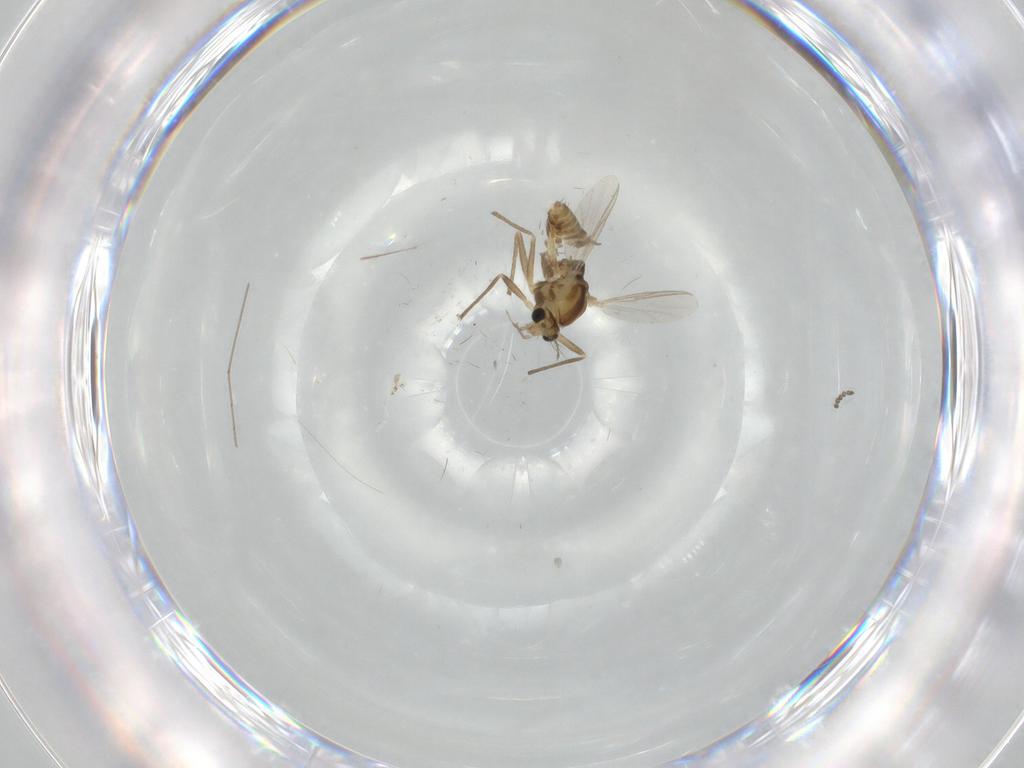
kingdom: Animalia
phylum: Arthropoda
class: Insecta
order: Diptera
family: Chironomidae
